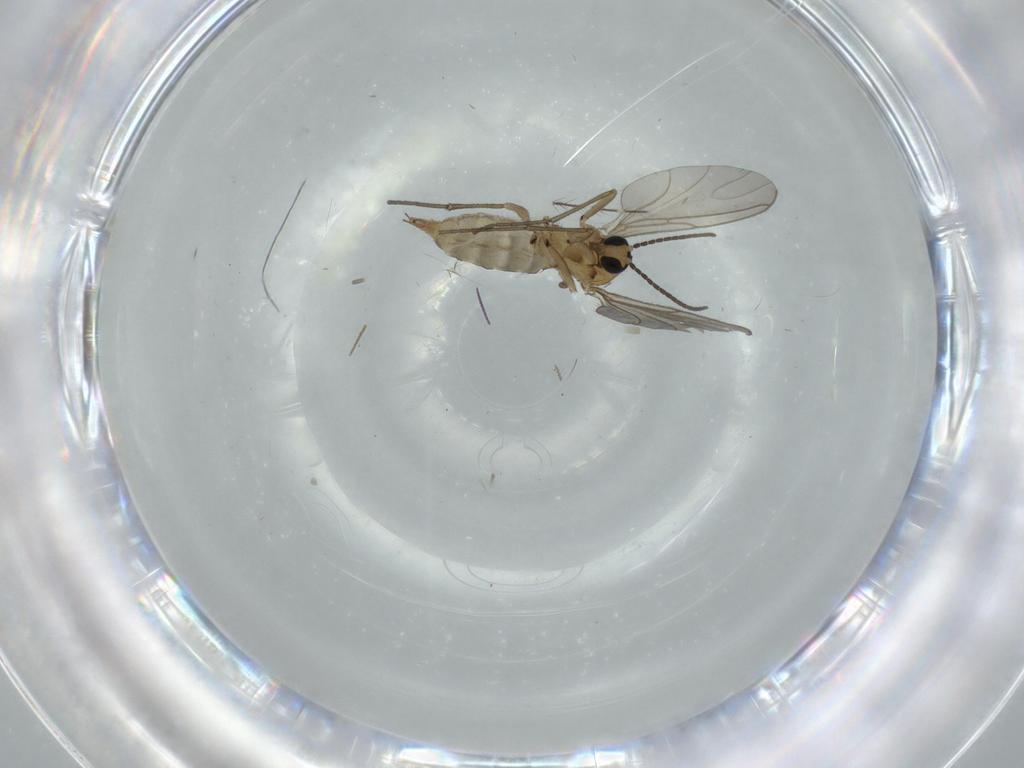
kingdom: Animalia
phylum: Arthropoda
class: Insecta
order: Diptera
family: Sciaridae
